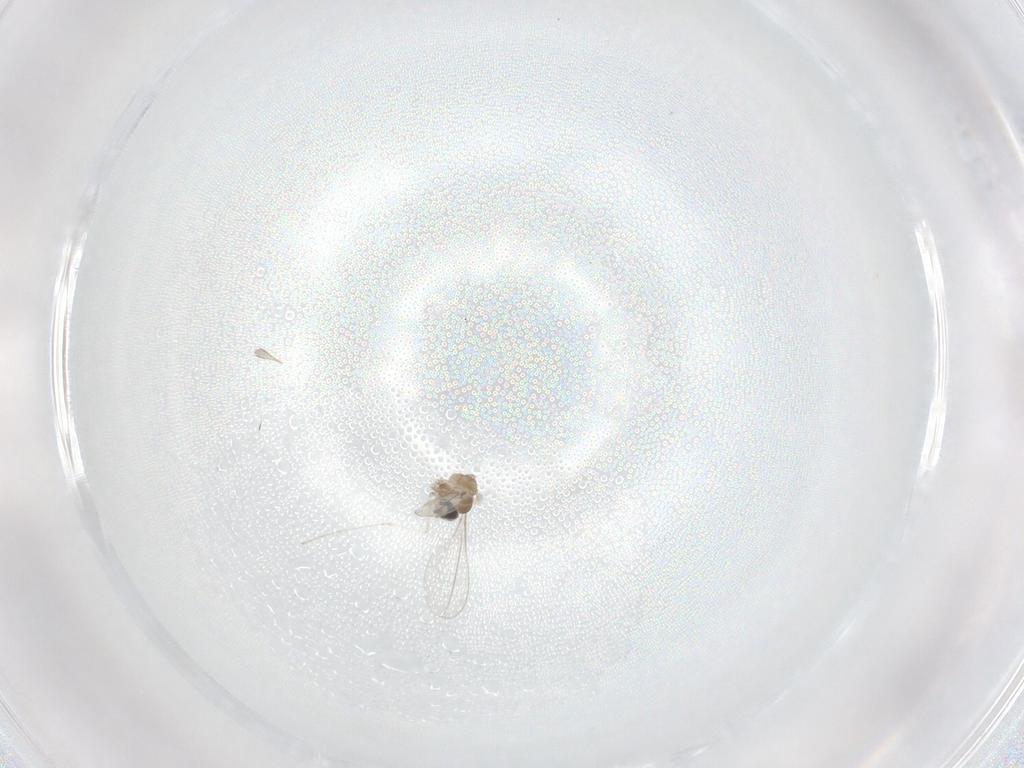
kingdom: Animalia
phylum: Arthropoda
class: Insecta
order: Diptera
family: Cecidomyiidae
